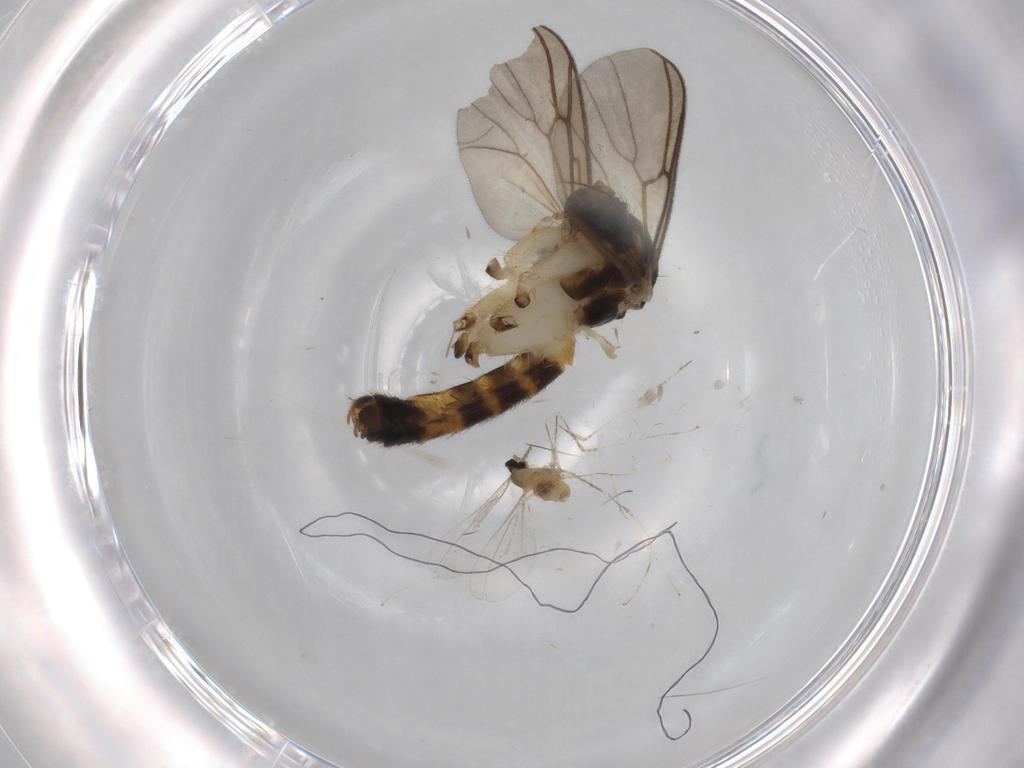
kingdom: Animalia
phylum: Arthropoda
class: Insecta
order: Diptera
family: Mycetophilidae
